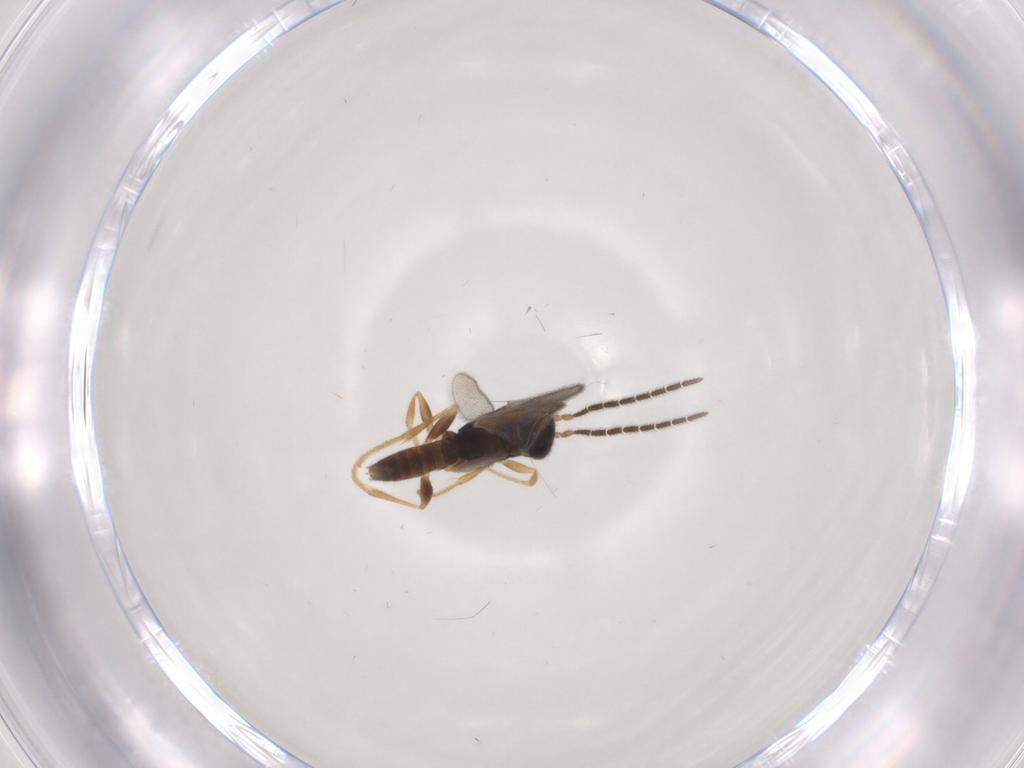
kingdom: Animalia
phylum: Arthropoda
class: Insecta
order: Hymenoptera
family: Dryinidae
